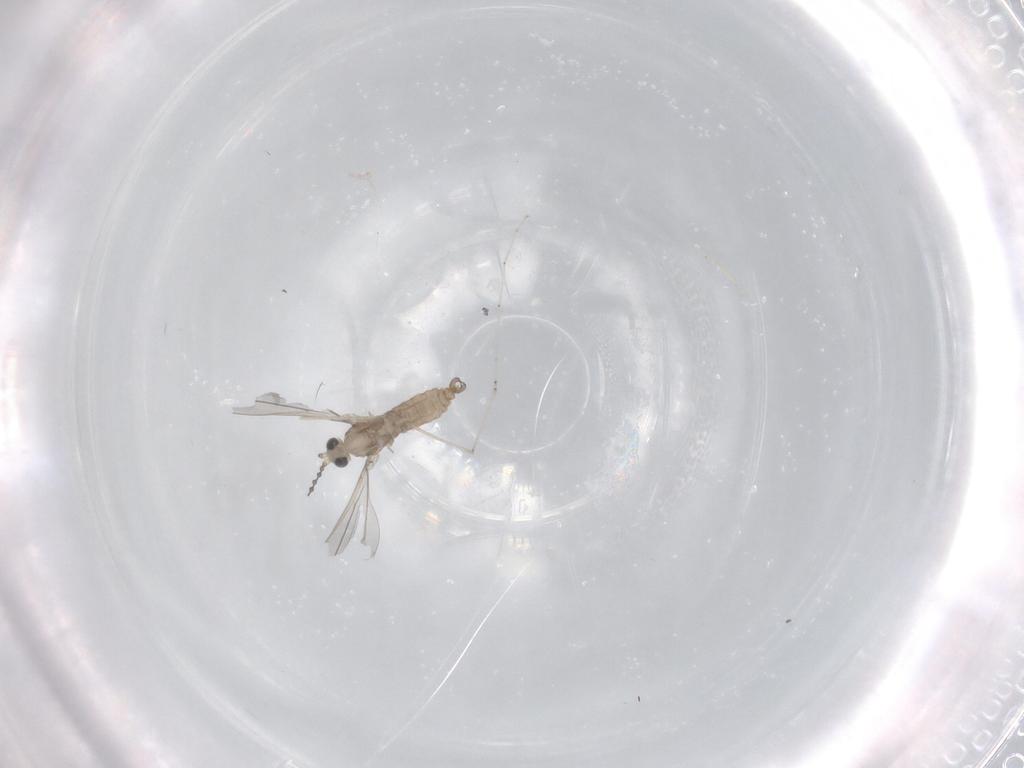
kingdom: Animalia
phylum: Arthropoda
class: Insecta
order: Diptera
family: Cecidomyiidae
